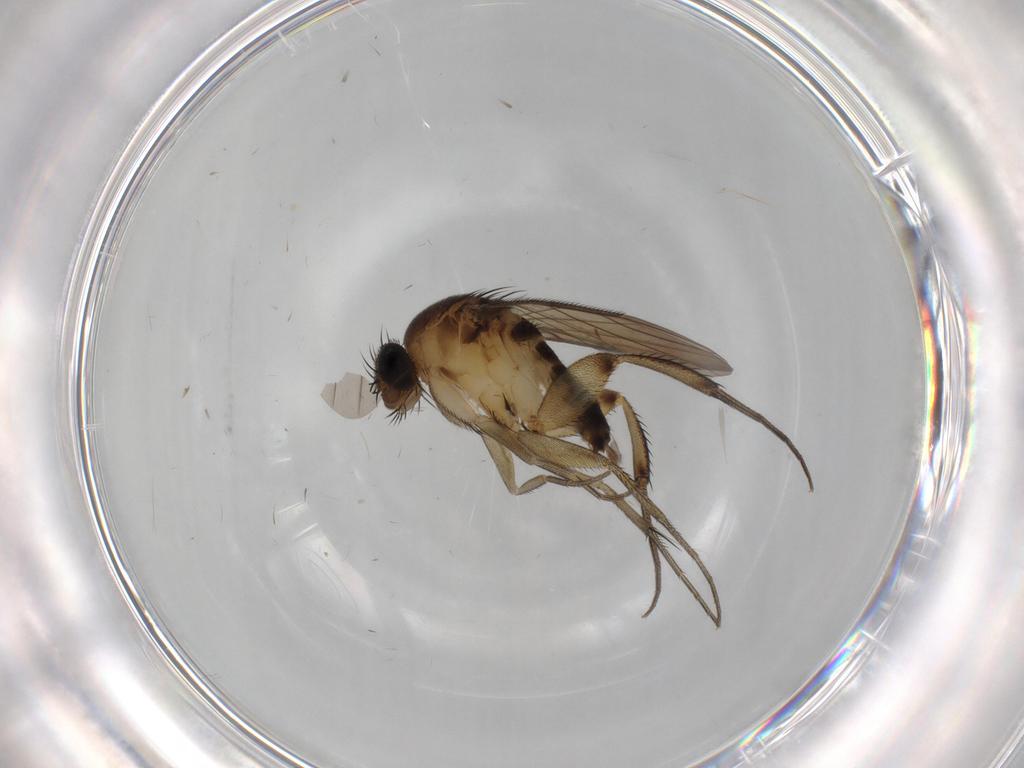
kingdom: Animalia
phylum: Arthropoda
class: Insecta
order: Diptera
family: Phoridae
